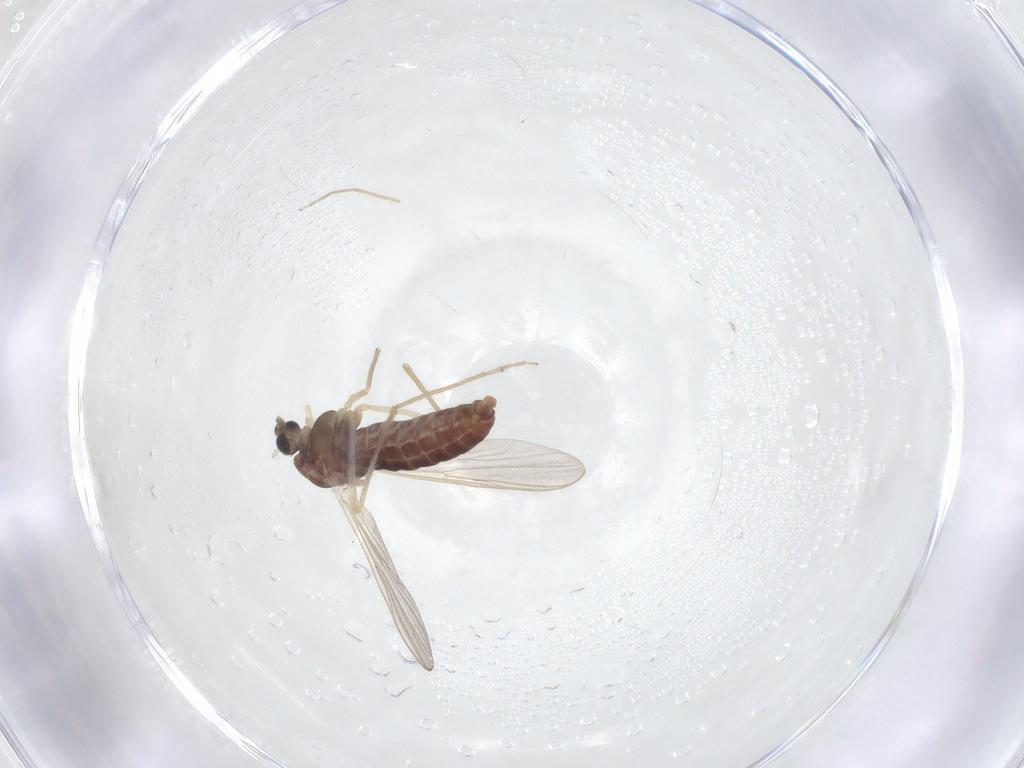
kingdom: Animalia
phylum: Arthropoda
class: Insecta
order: Diptera
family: Chironomidae
